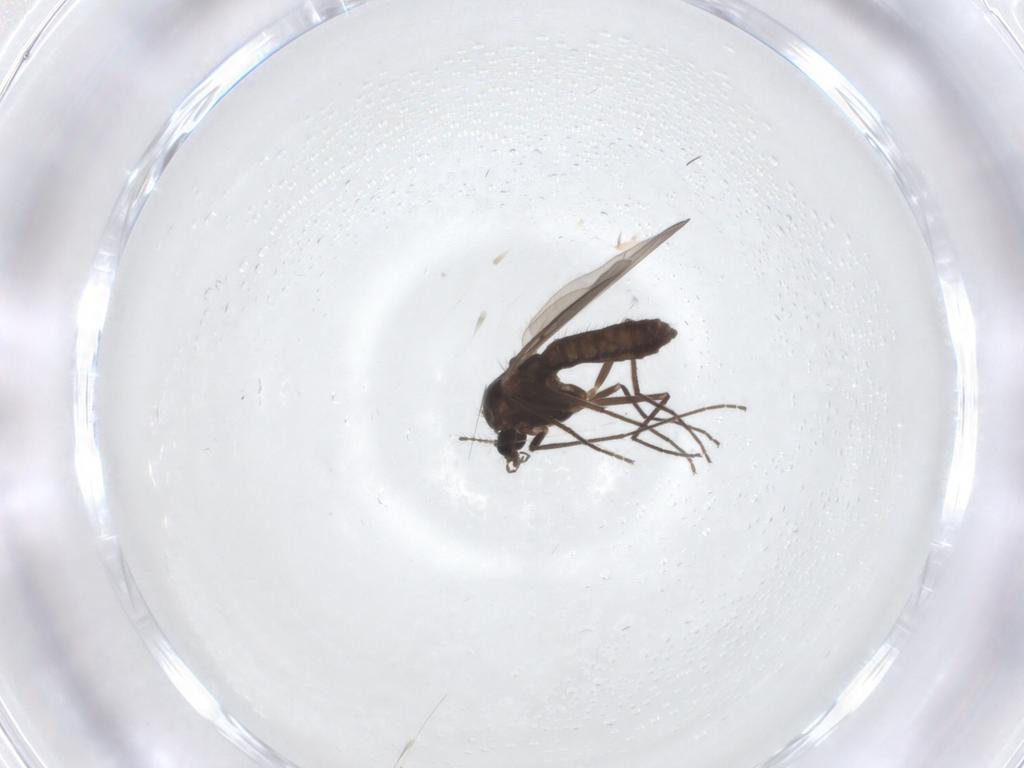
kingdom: Animalia
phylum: Arthropoda
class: Insecta
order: Diptera
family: Chironomidae
